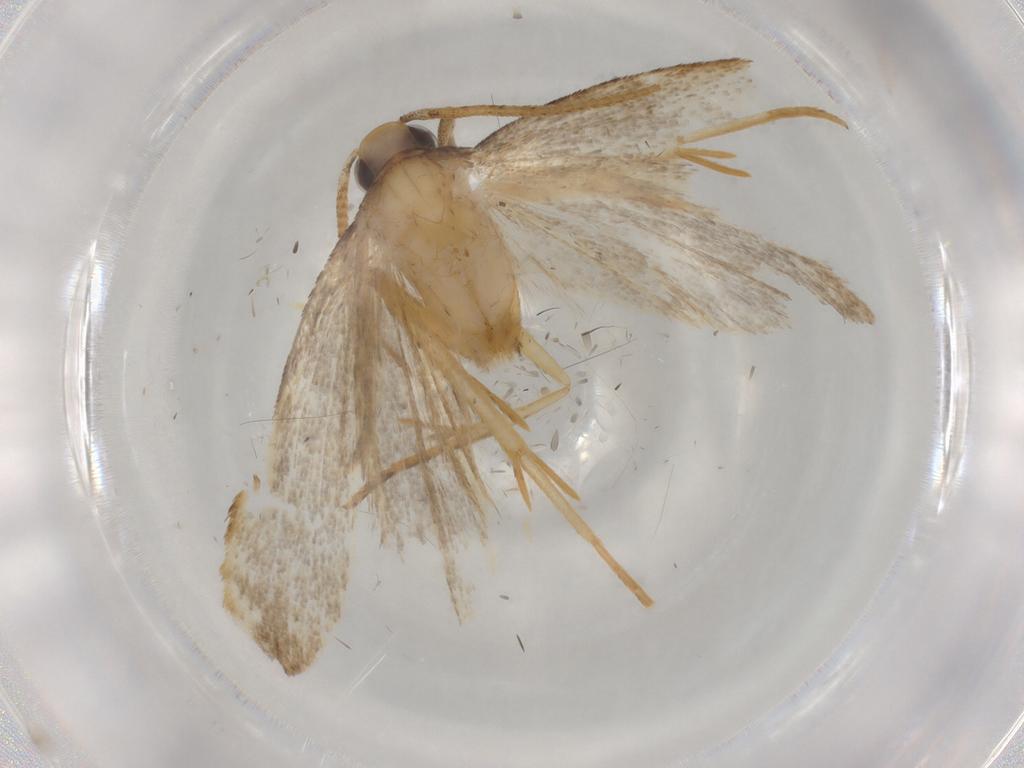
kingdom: Animalia
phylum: Arthropoda
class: Insecta
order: Lepidoptera
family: Autostichidae
